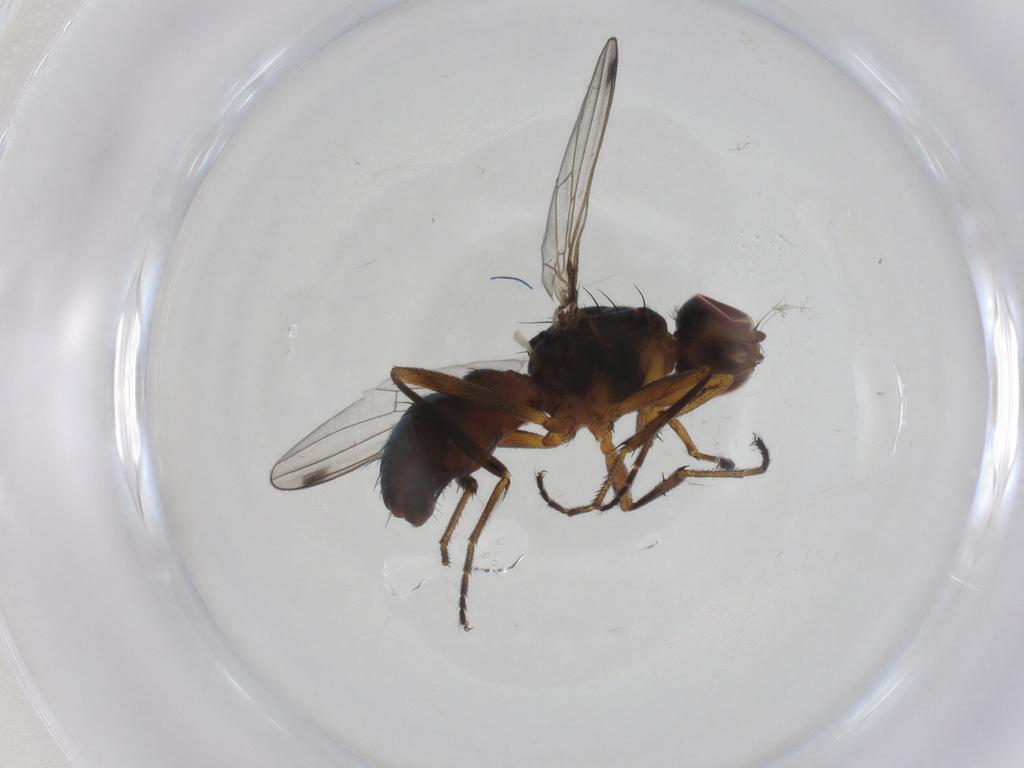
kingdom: Animalia
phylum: Arthropoda
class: Insecta
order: Diptera
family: Sepsidae
